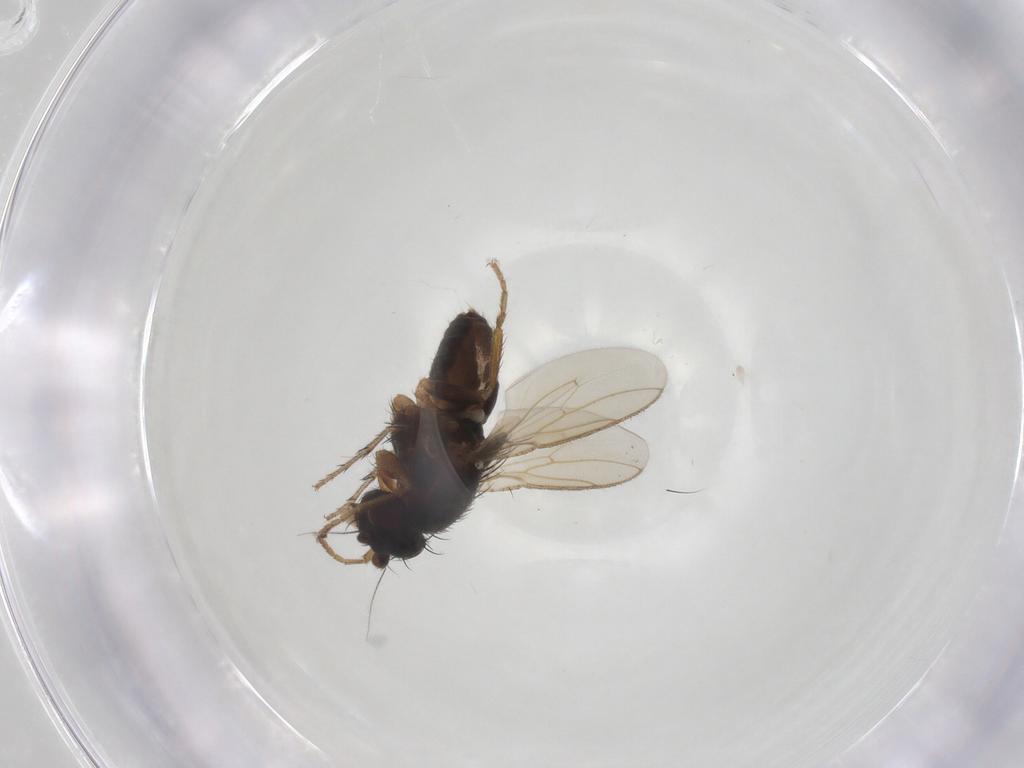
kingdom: Animalia
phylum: Arthropoda
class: Insecta
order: Diptera
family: Sphaeroceridae
